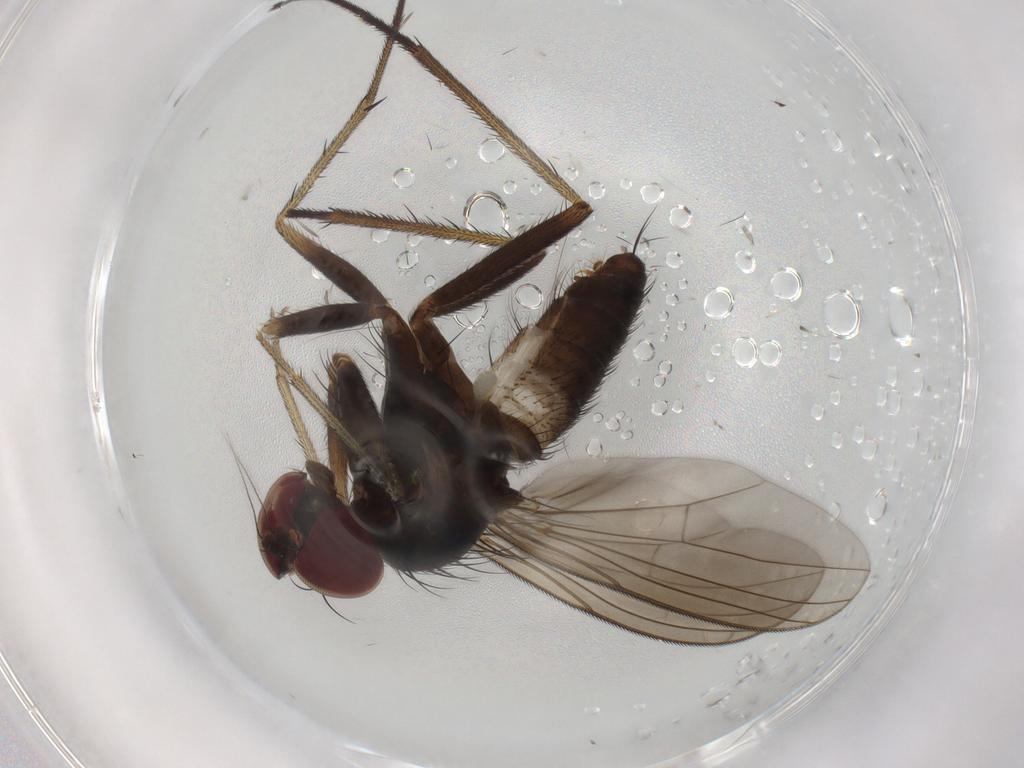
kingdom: Animalia
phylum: Arthropoda
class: Insecta
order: Diptera
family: Dolichopodidae
